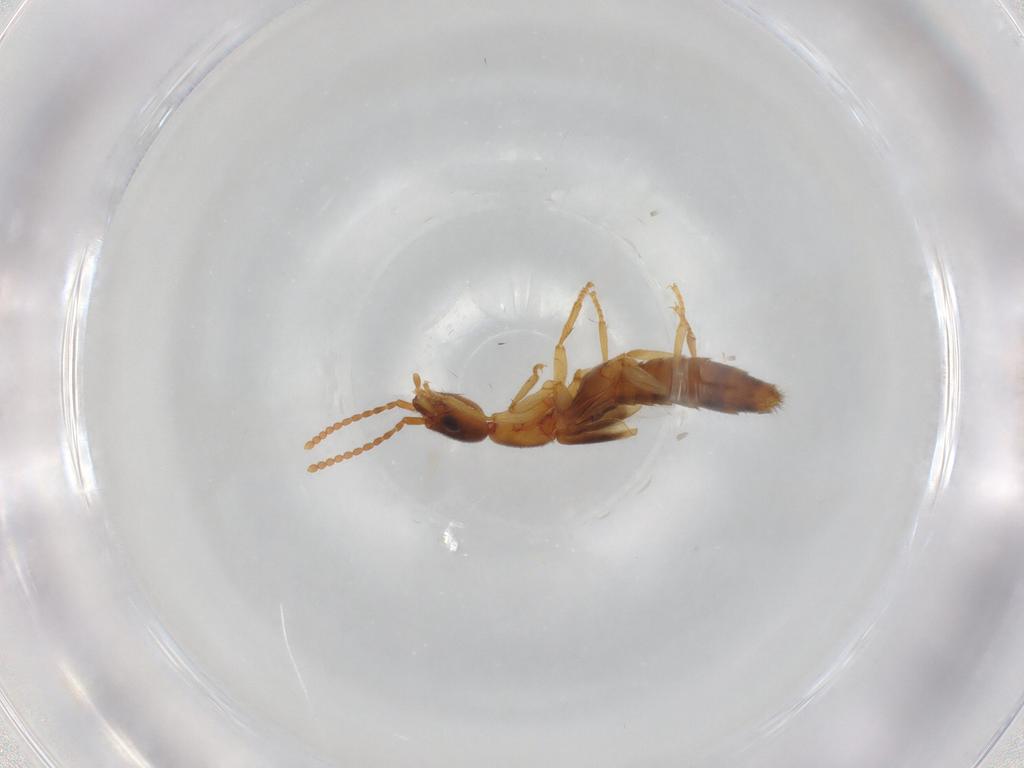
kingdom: Animalia
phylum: Arthropoda
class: Insecta
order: Coleoptera
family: Staphylinidae
